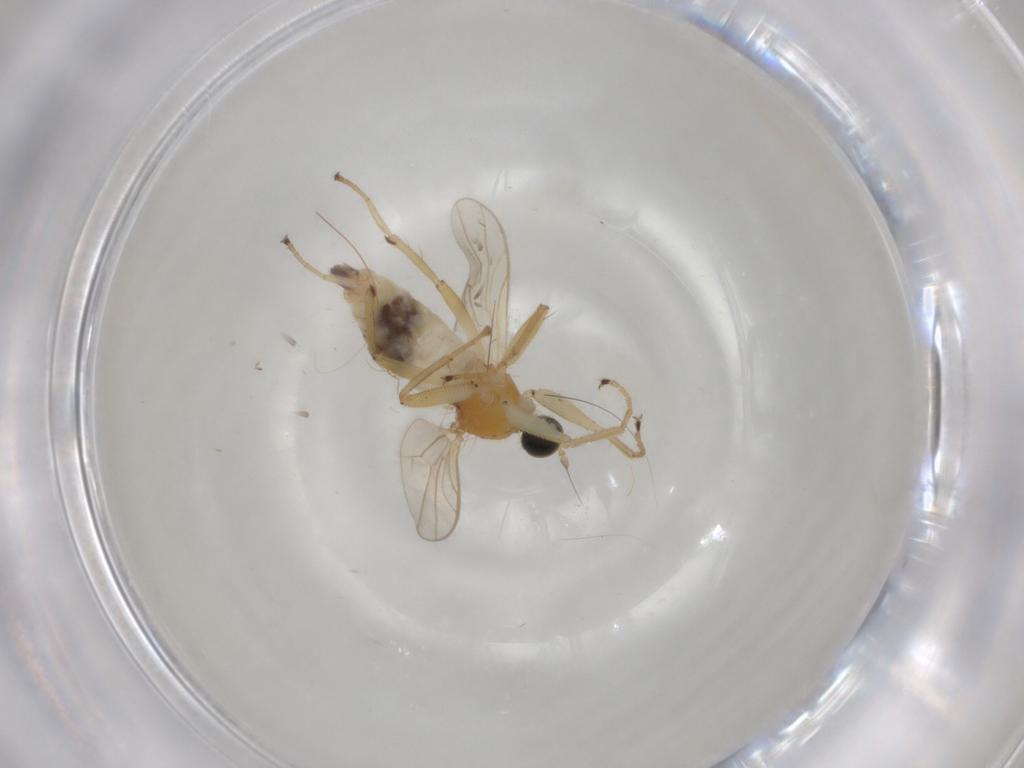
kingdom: Animalia
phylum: Arthropoda
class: Insecta
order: Diptera
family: Hybotidae
